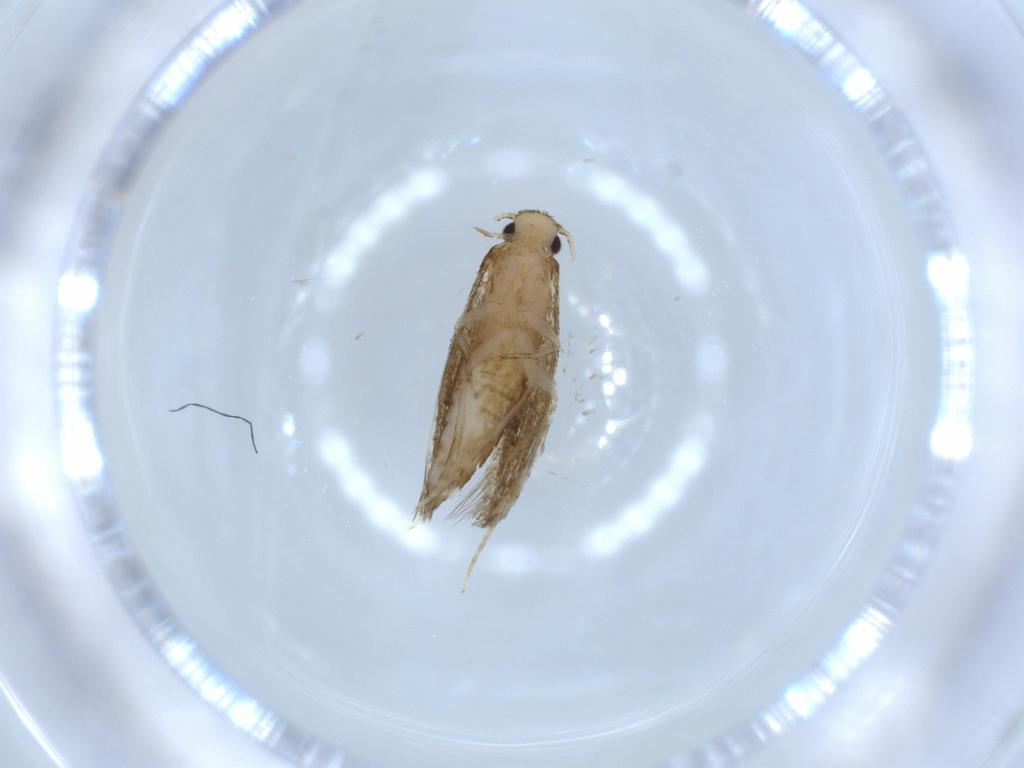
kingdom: Animalia
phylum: Arthropoda
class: Insecta
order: Lepidoptera
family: Tineidae
